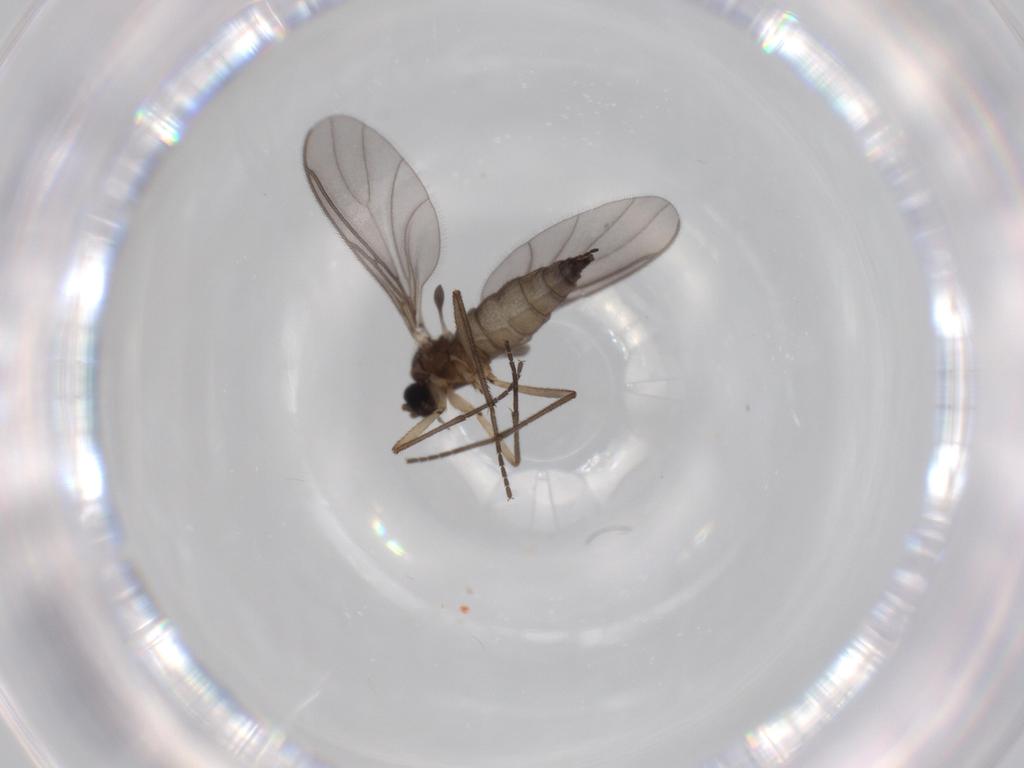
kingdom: Animalia
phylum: Arthropoda
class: Insecta
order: Diptera
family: Sciaridae
